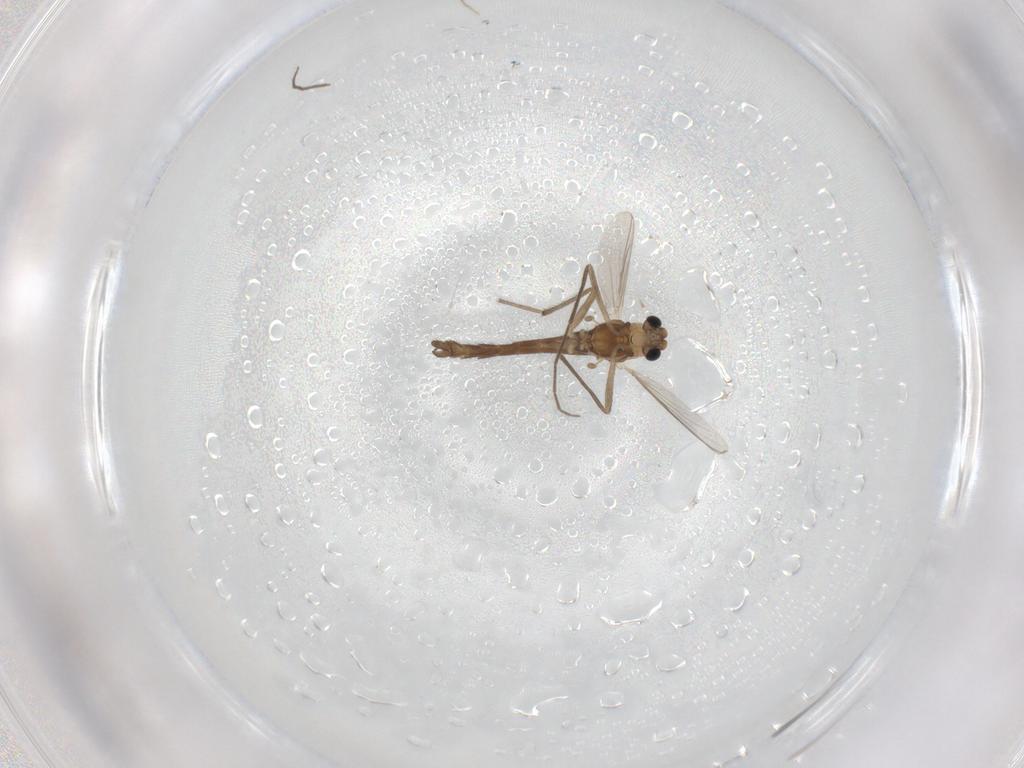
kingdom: Animalia
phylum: Arthropoda
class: Insecta
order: Diptera
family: Chironomidae
